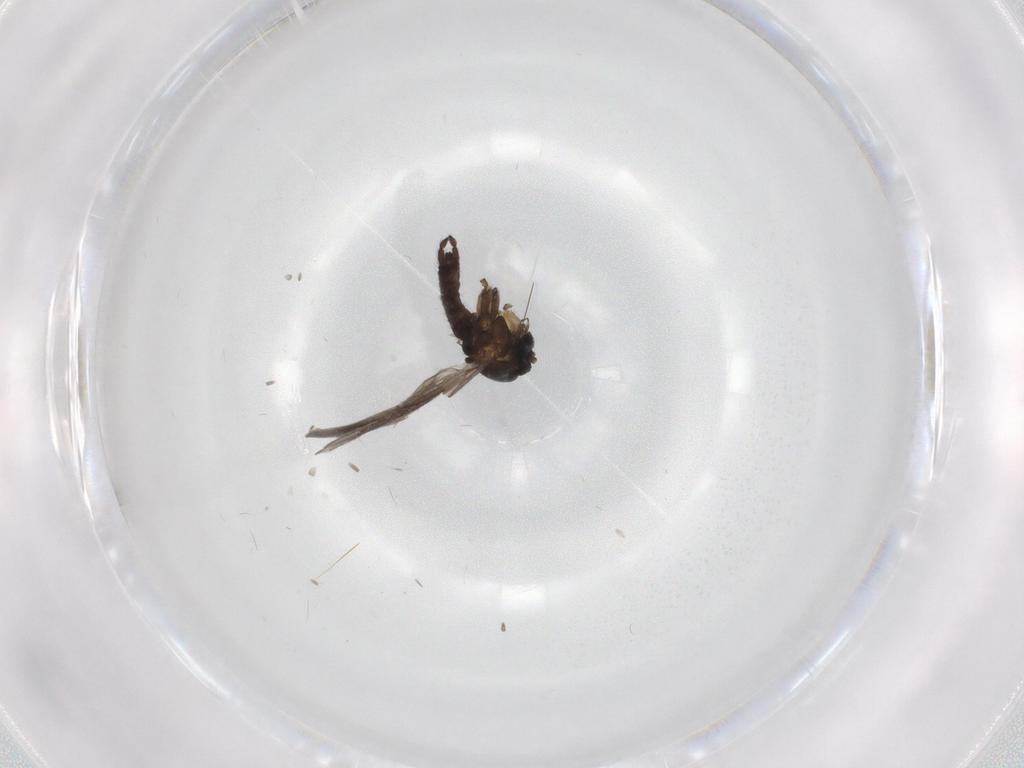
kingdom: Animalia
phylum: Arthropoda
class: Insecta
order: Diptera
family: Sciaridae
